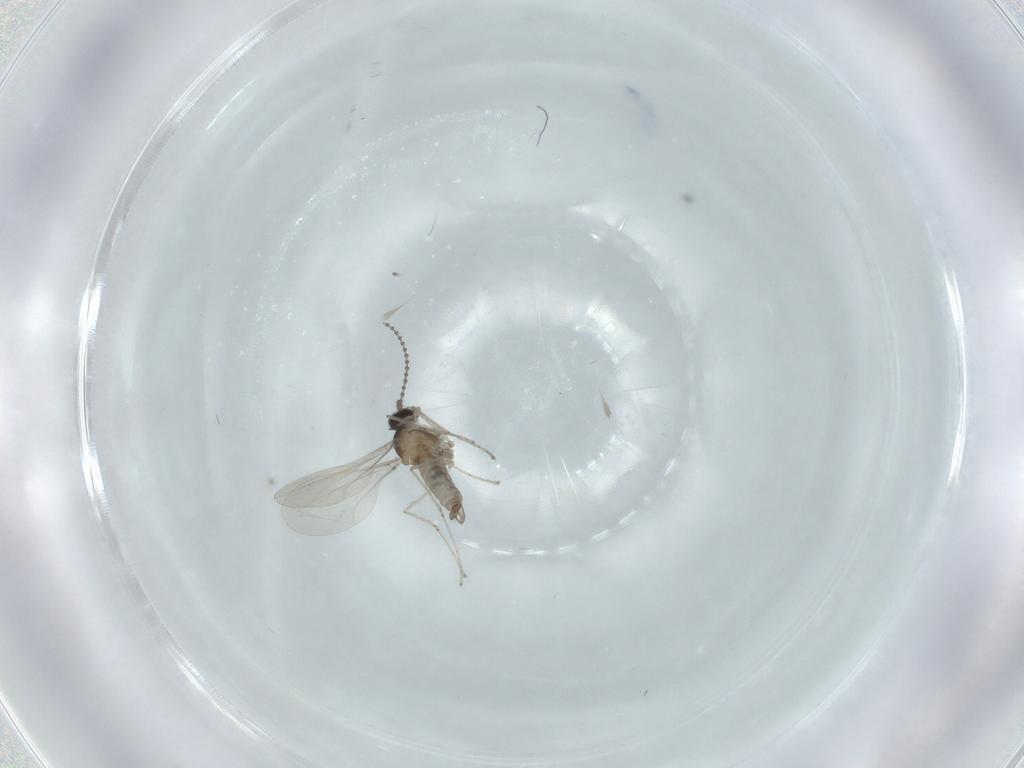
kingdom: Animalia
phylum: Arthropoda
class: Insecta
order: Diptera
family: Cecidomyiidae
